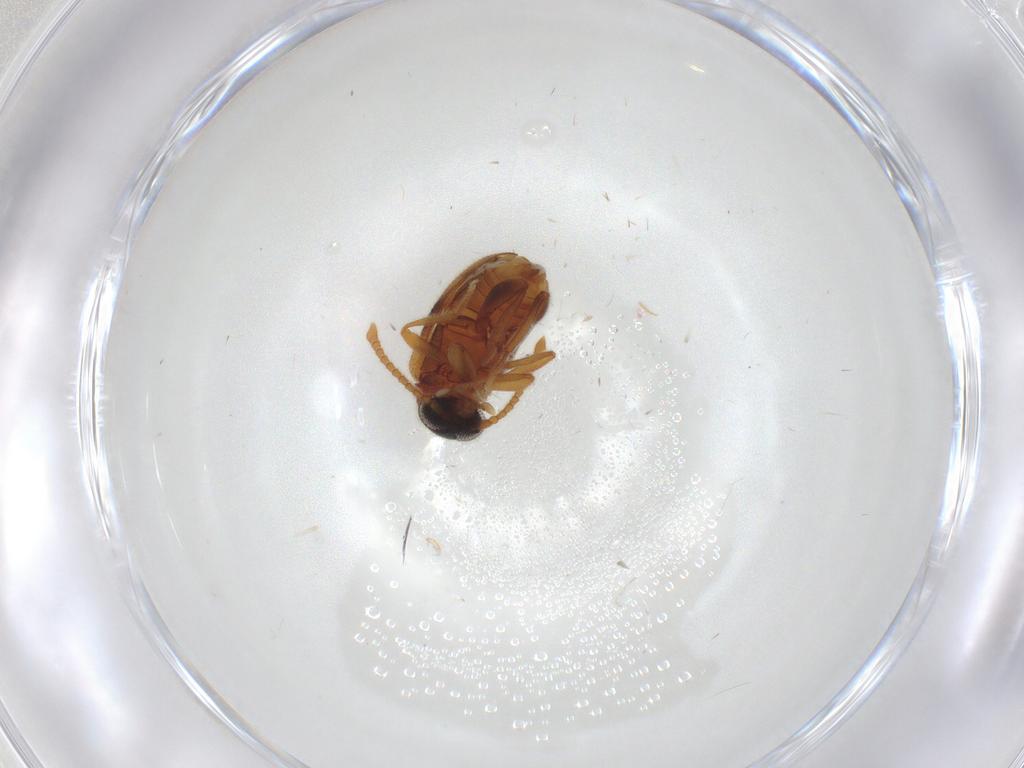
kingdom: Animalia
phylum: Arthropoda
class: Insecta
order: Coleoptera
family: Aderidae
